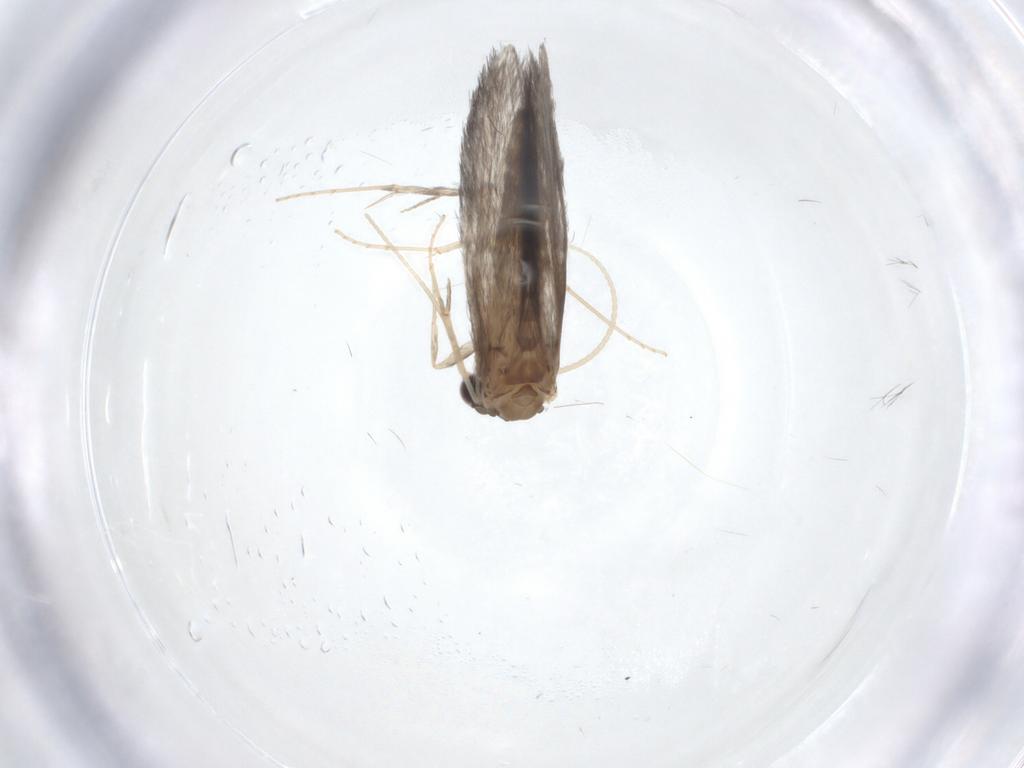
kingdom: Animalia
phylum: Arthropoda
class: Insecta
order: Trichoptera
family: Hydroptilidae
